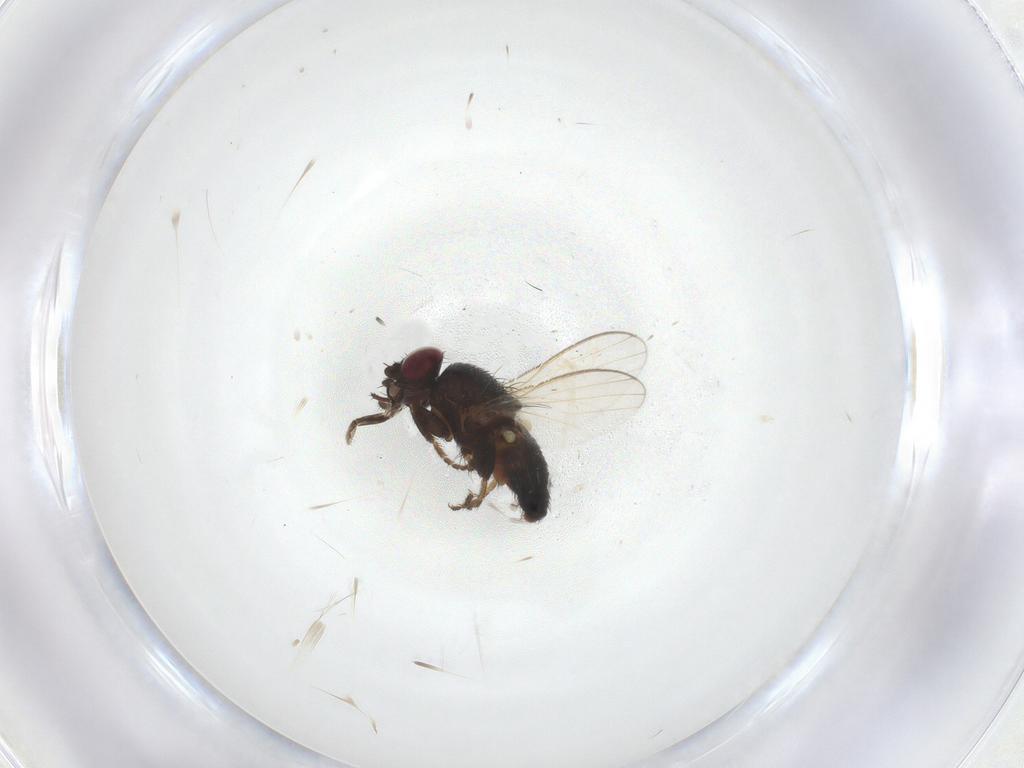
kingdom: Animalia
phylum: Arthropoda
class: Insecta
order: Diptera
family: Milichiidae
